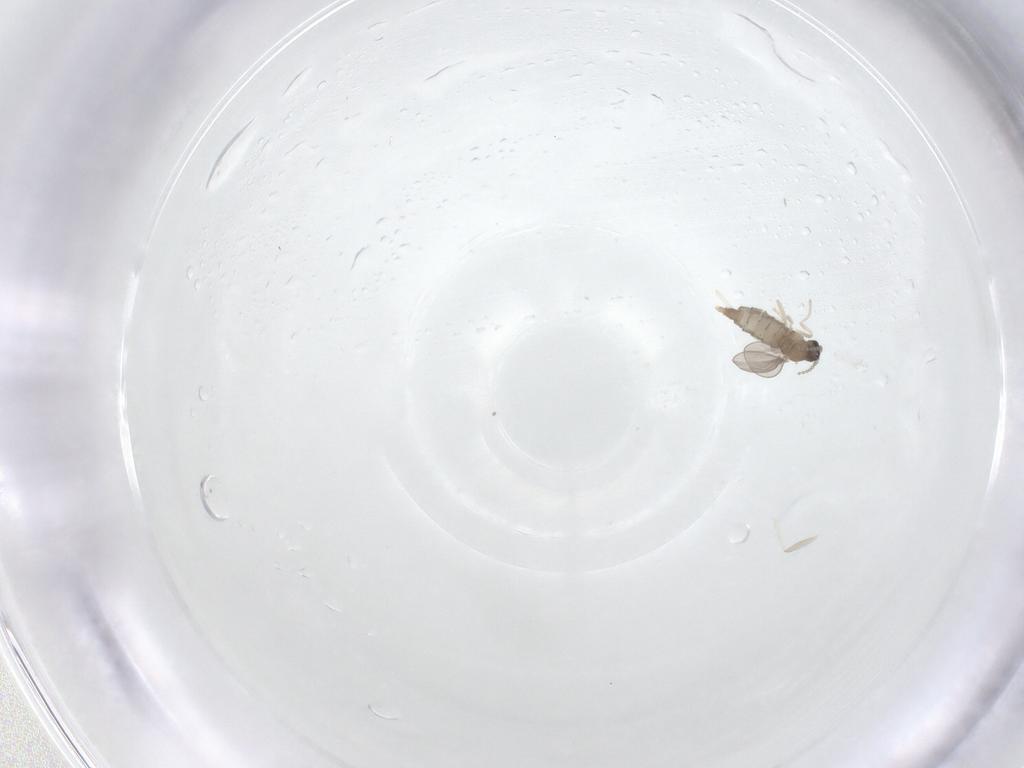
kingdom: Animalia
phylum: Arthropoda
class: Insecta
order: Diptera
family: Cecidomyiidae
